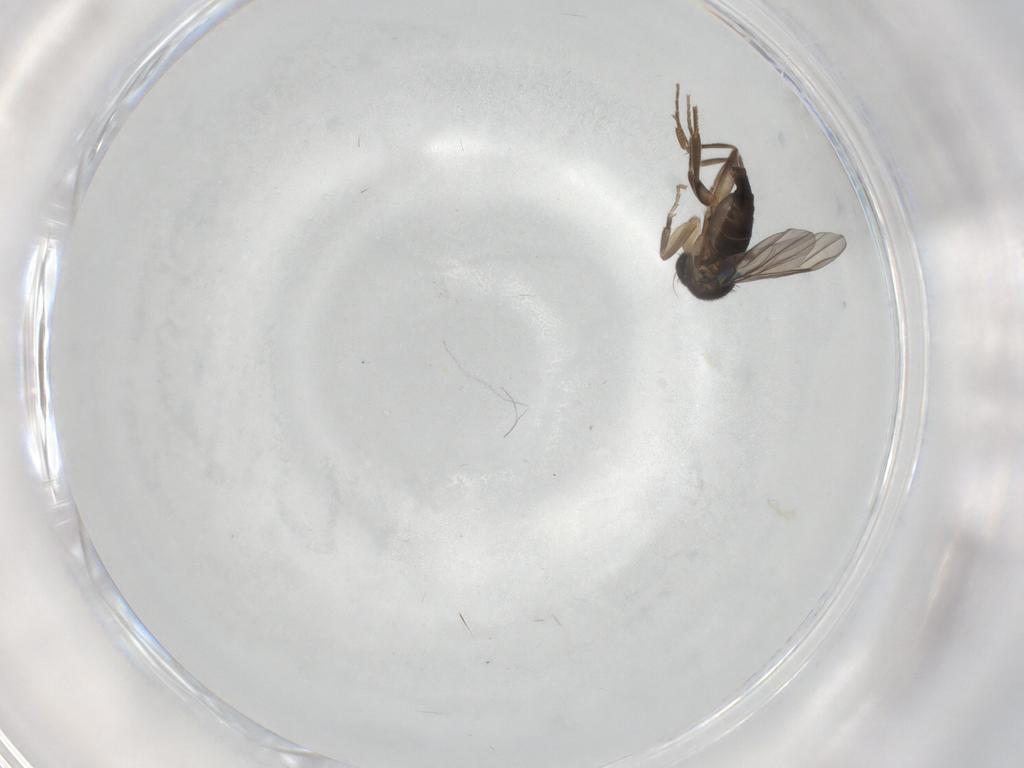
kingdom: Animalia
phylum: Arthropoda
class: Insecta
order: Diptera
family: Phoridae
